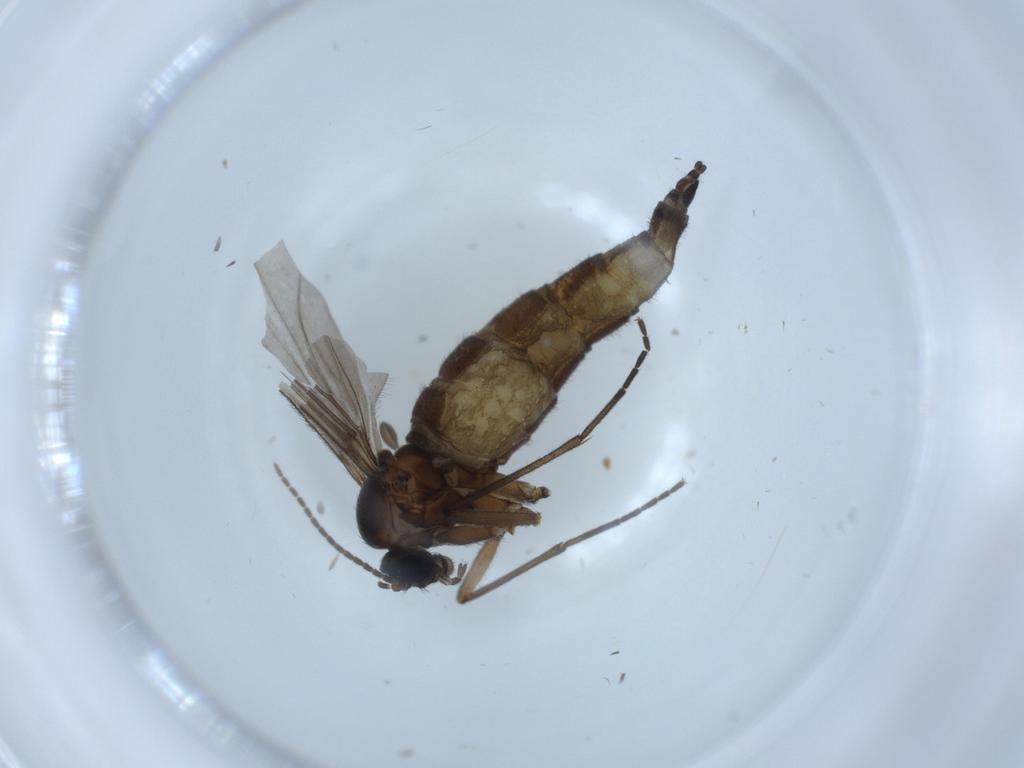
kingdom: Animalia
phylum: Arthropoda
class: Insecta
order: Diptera
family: Sciaridae
